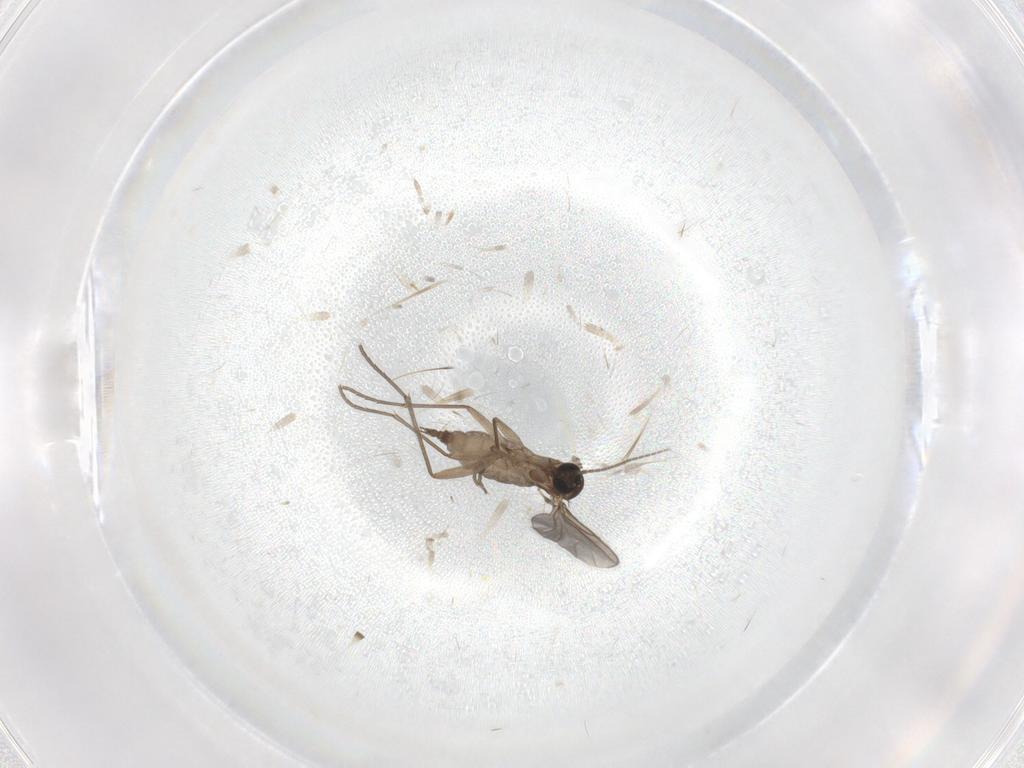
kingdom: Animalia
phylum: Arthropoda
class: Insecta
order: Diptera
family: Sciaridae
